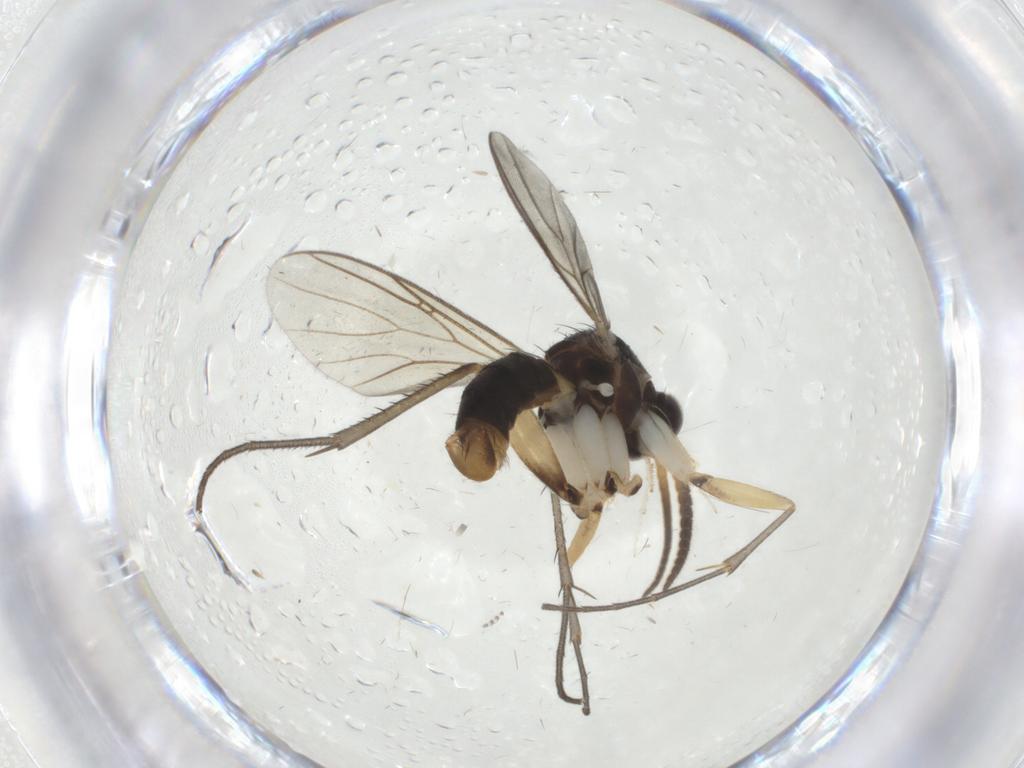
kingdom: Animalia
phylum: Arthropoda
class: Insecta
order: Diptera
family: Mycetophilidae
